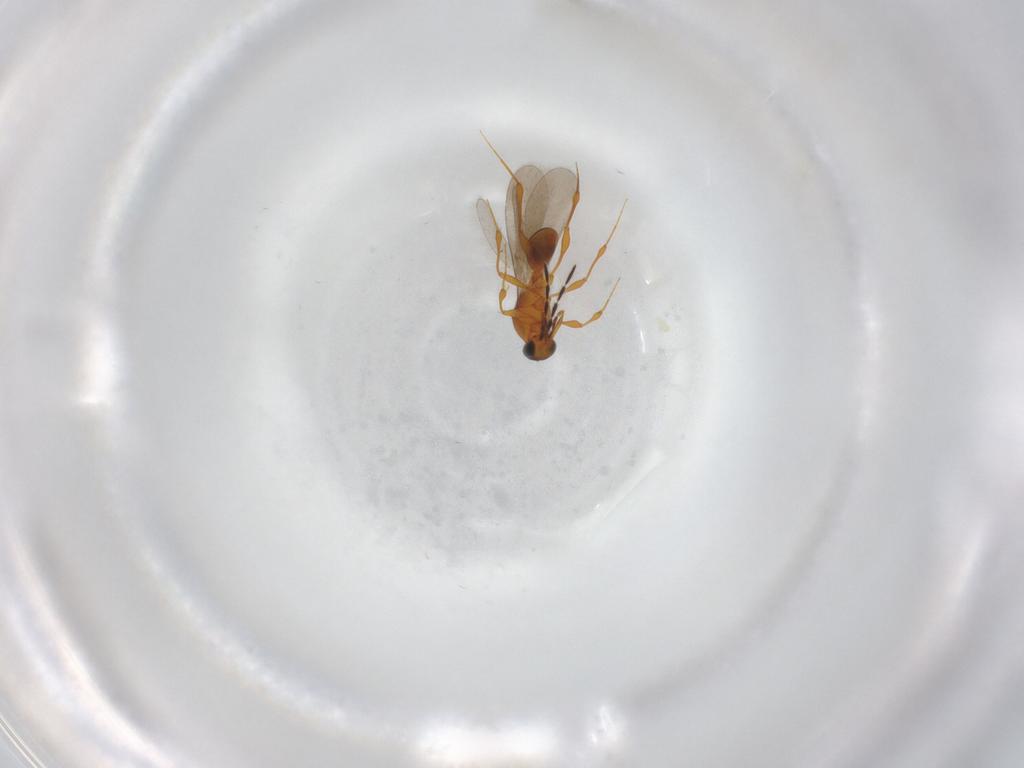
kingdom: Animalia
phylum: Arthropoda
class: Insecta
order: Hymenoptera
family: Platygastridae
